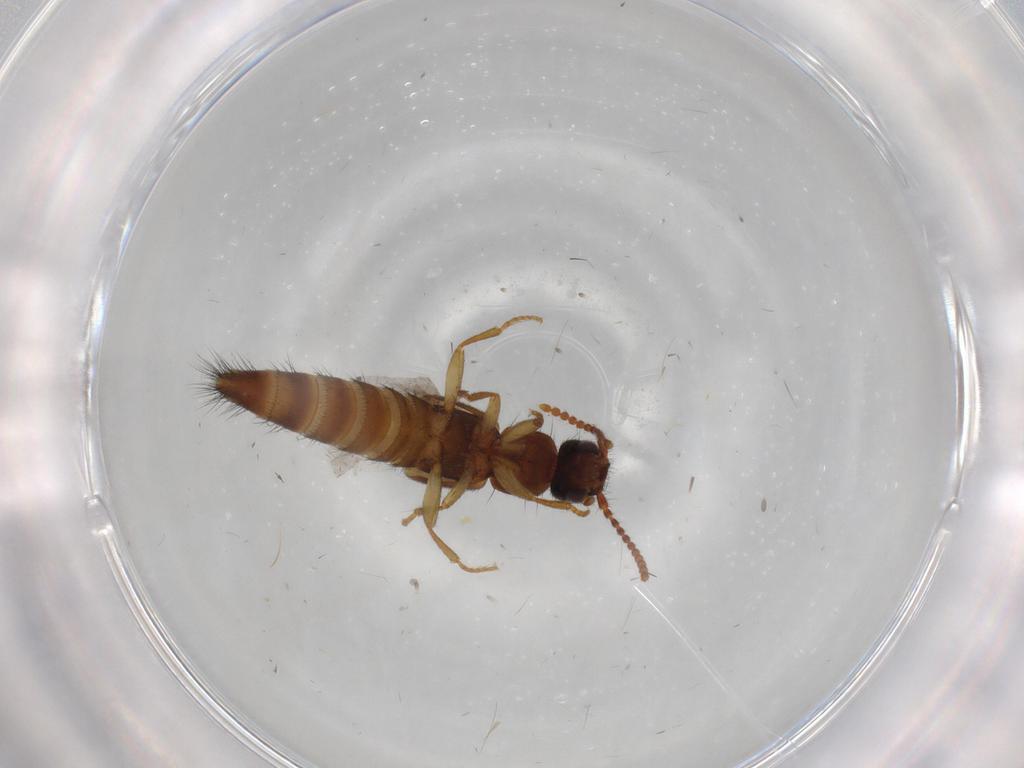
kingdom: Animalia
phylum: Arthropoda
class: Insecta
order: Coleoptera
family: Staphylinidae
